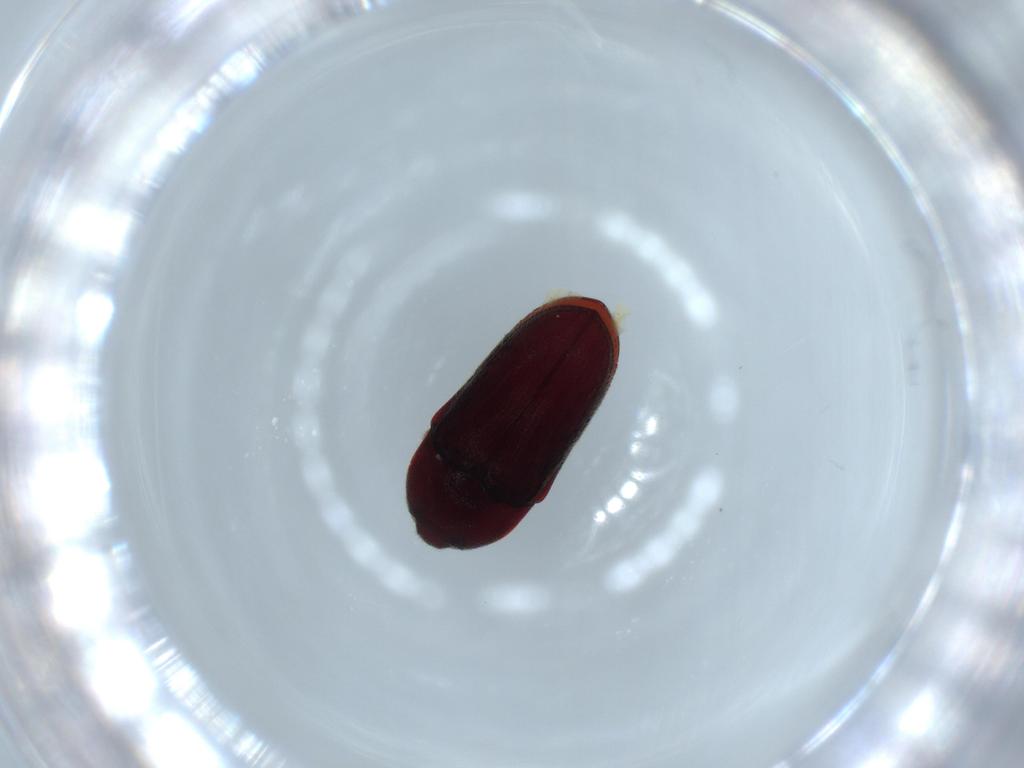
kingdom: Animalia
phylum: Arthropoda
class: Insecta
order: Coleoptera
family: Throscidae
